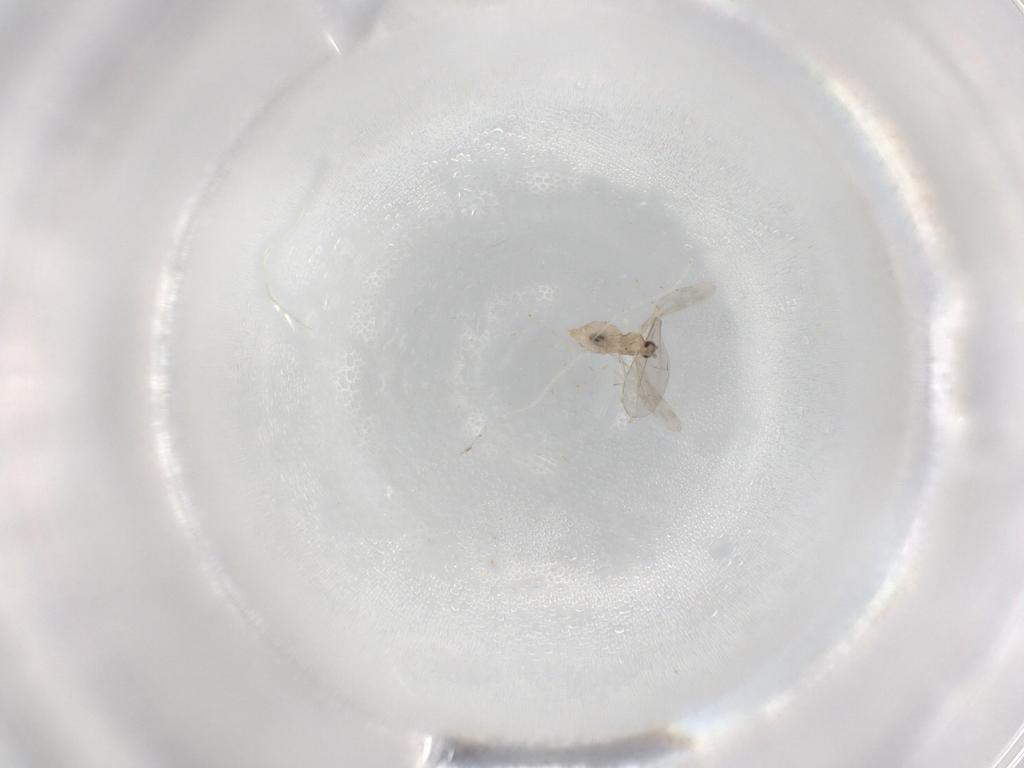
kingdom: Animalia
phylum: Arthropoda
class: Insecta
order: Diptera
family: Cecidomyiidae
